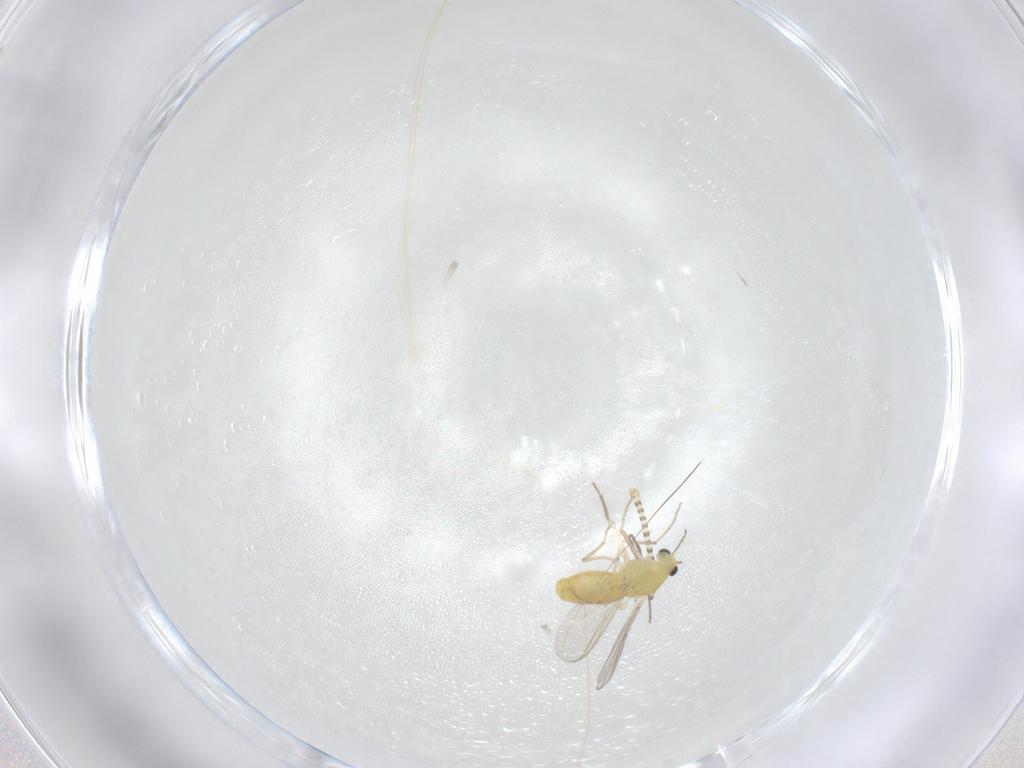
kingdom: Animalia
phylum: Arthropoda
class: Insecta
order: Diptera
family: Chironomidae
